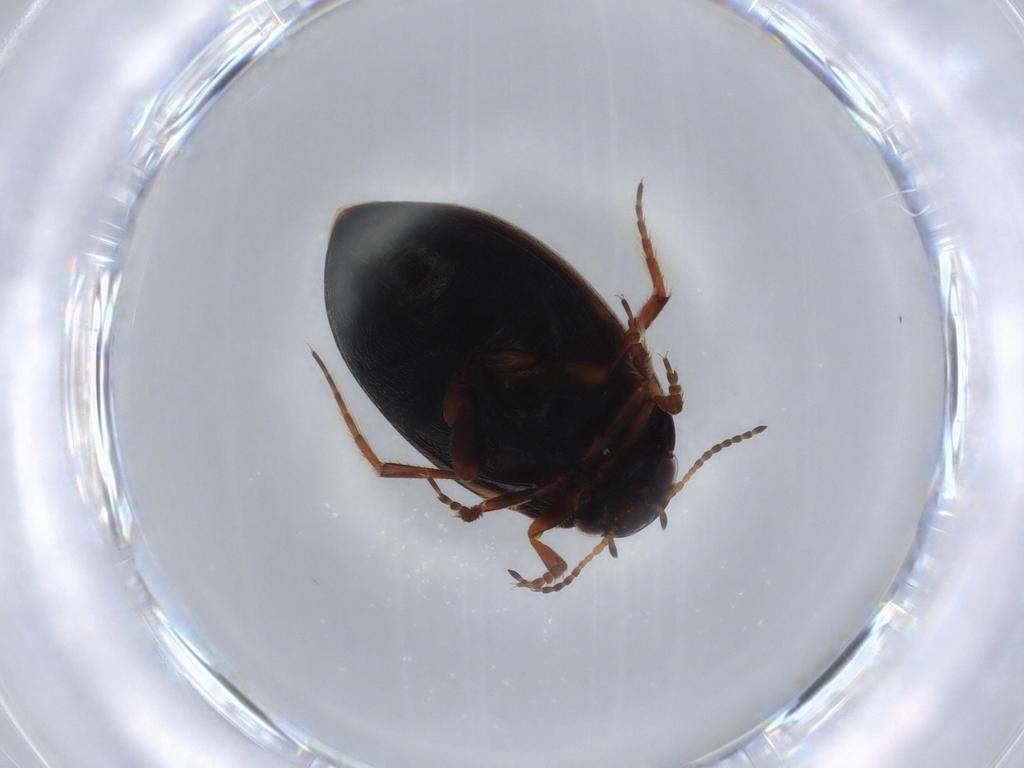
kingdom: Animalia
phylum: Arthropoda
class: Insecta
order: Coleoptera
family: Dytiscidae
